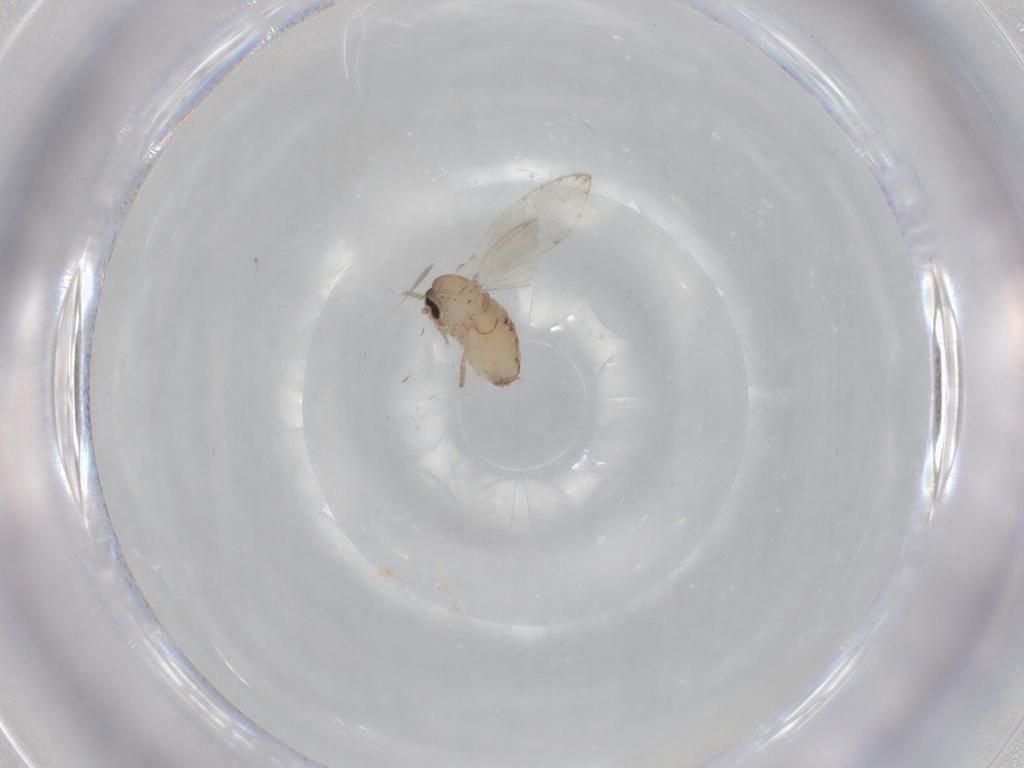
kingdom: Animalia
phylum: Arthropoda
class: Insecta
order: Diptera
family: Psychodidae
